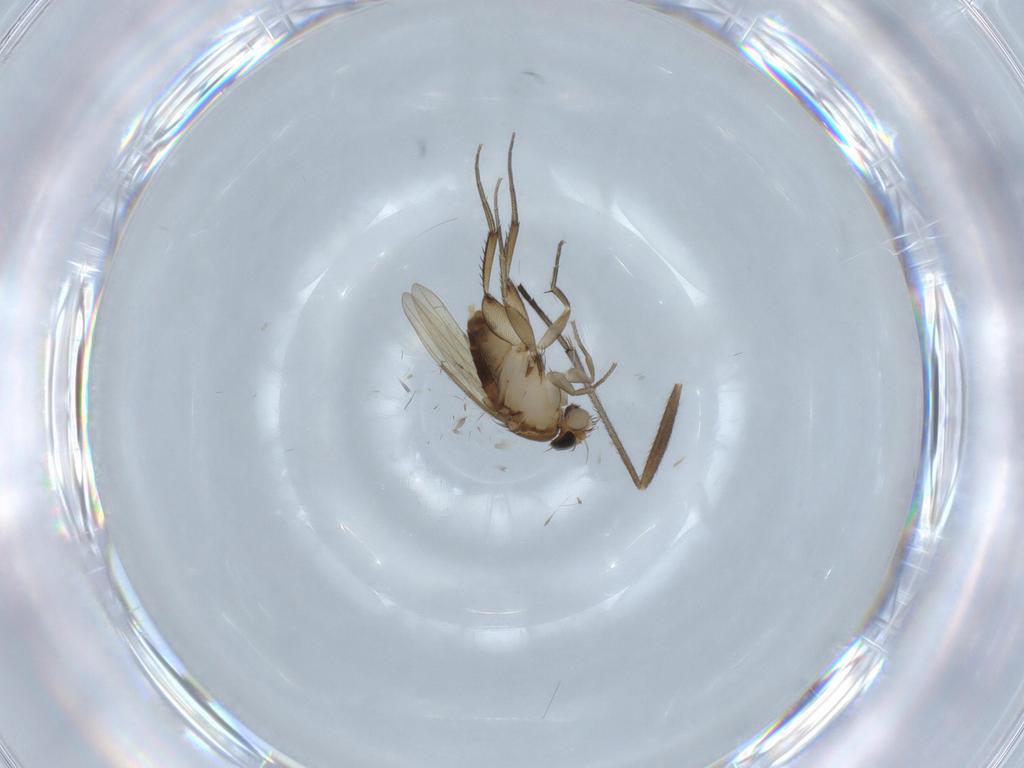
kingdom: Animalia
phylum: Arthropoda
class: Insecta
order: Diptera
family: Phoridae
